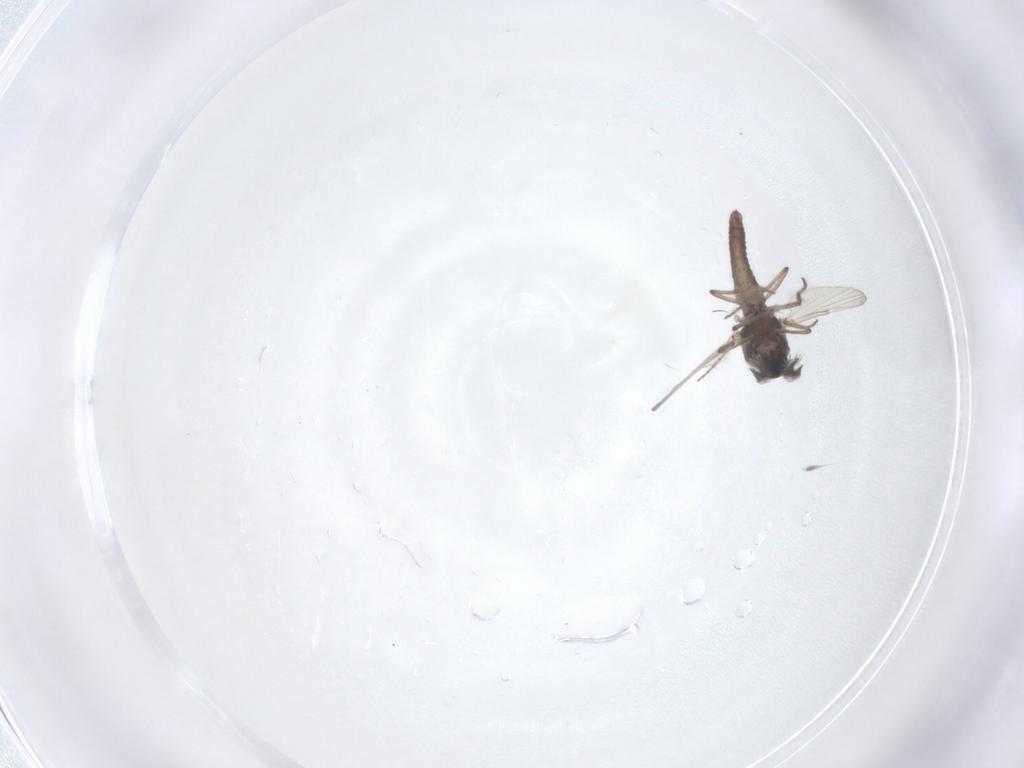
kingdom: Animalia
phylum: Arthropoda
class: Insecta
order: Diptera
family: Ceratopogonidae
